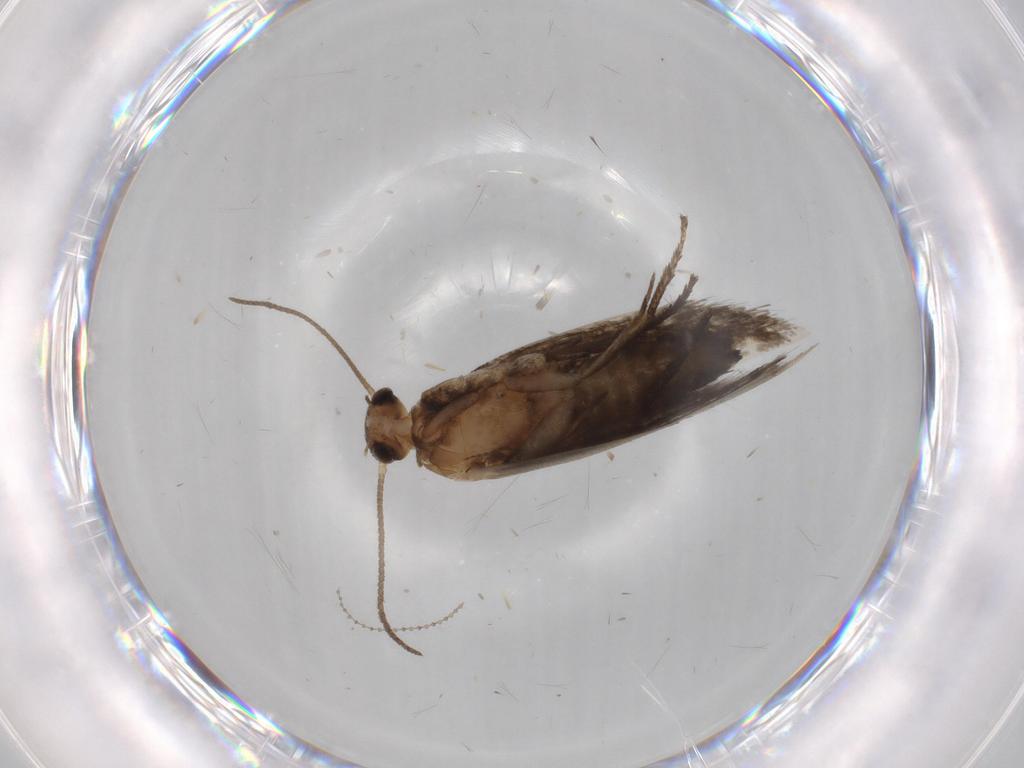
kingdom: Animalia
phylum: Arthropoda
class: Insecta
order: Lepidoptera
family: Heliozelidae
